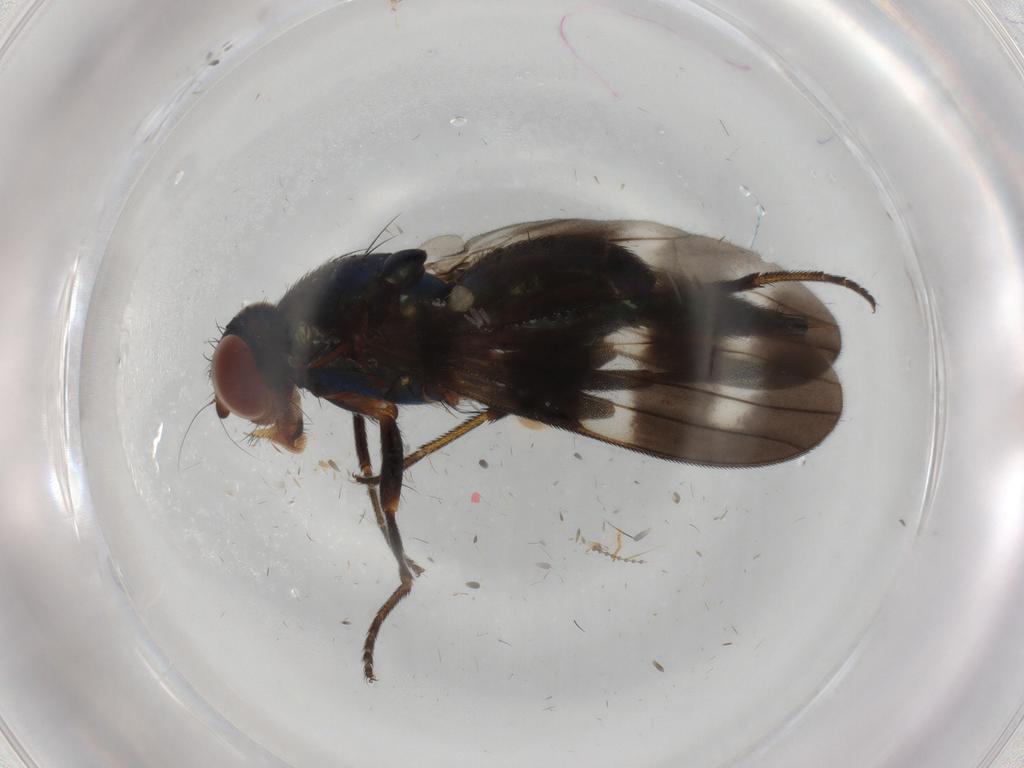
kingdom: Animalia
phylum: Arthropoda
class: Insecta
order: Diptera
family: Ulidiidae
